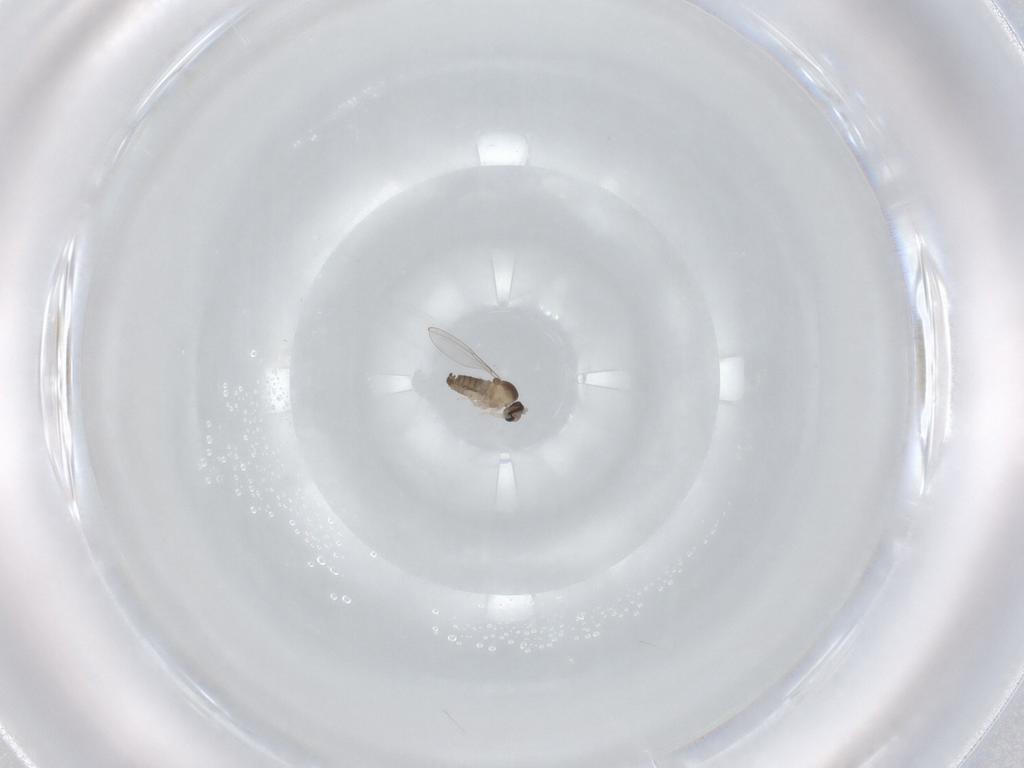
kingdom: Animalia
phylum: Arthropoda
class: Insecta
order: Diptera
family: Cecidomyiidae
